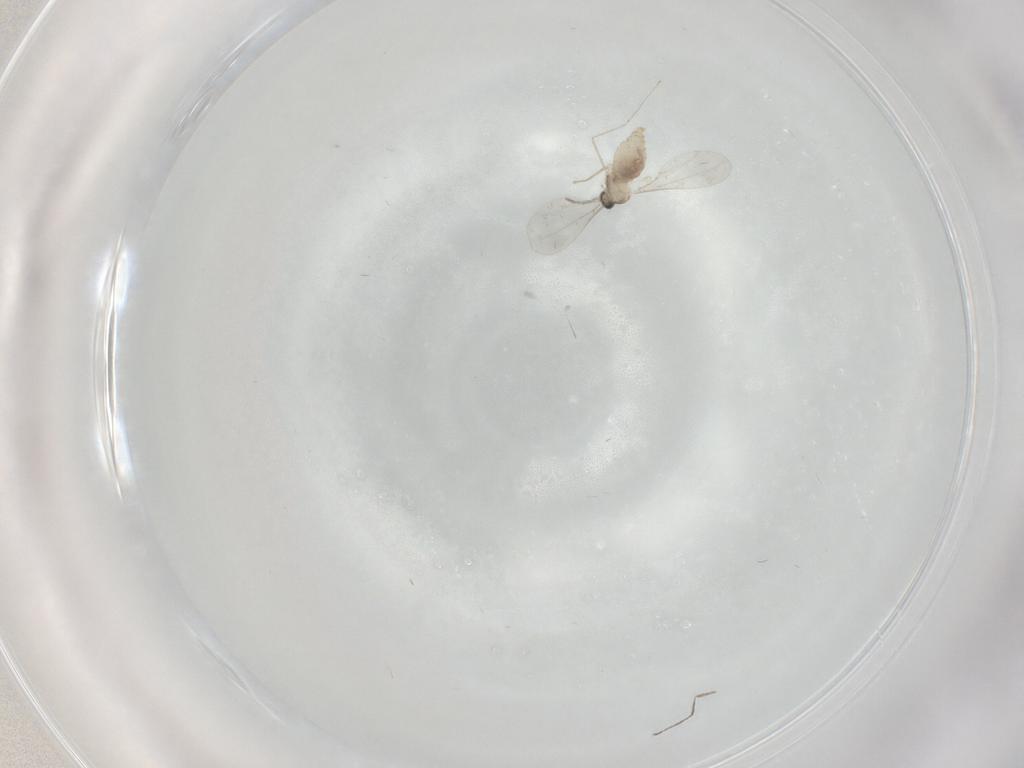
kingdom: Animalia
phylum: Arthropoda
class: Insecta
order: Diptera
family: Cecidomyiidae
